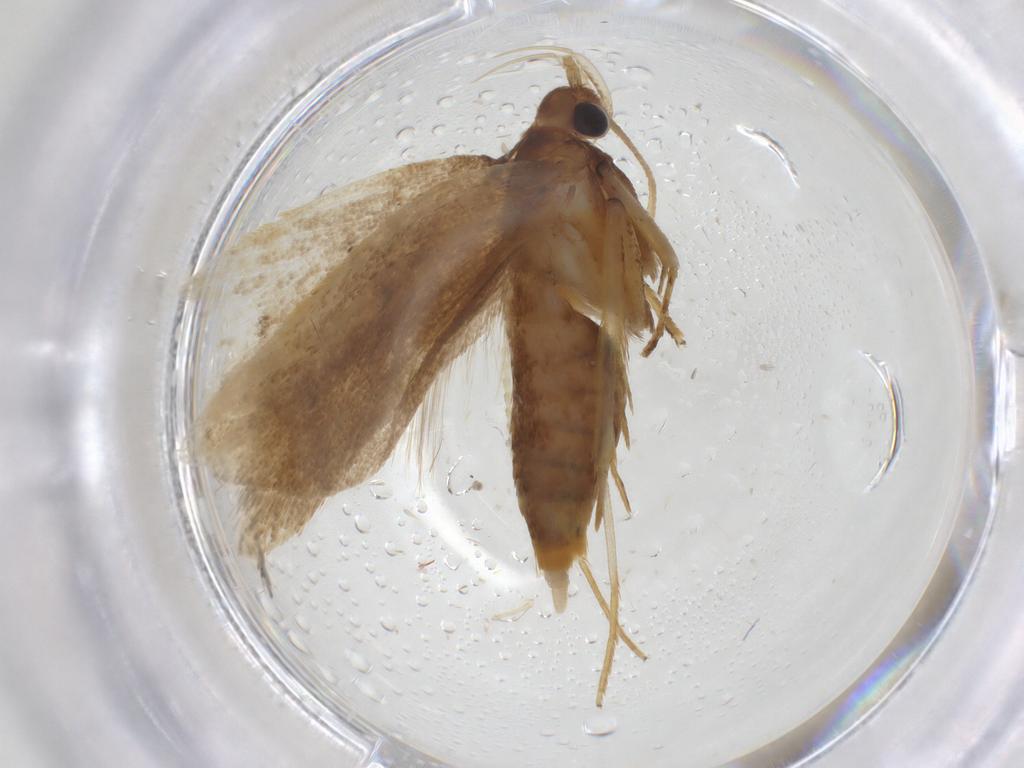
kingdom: Animalia
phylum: Arthropoda
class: Insecta
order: Lepidoptera
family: Lecithoceridae
